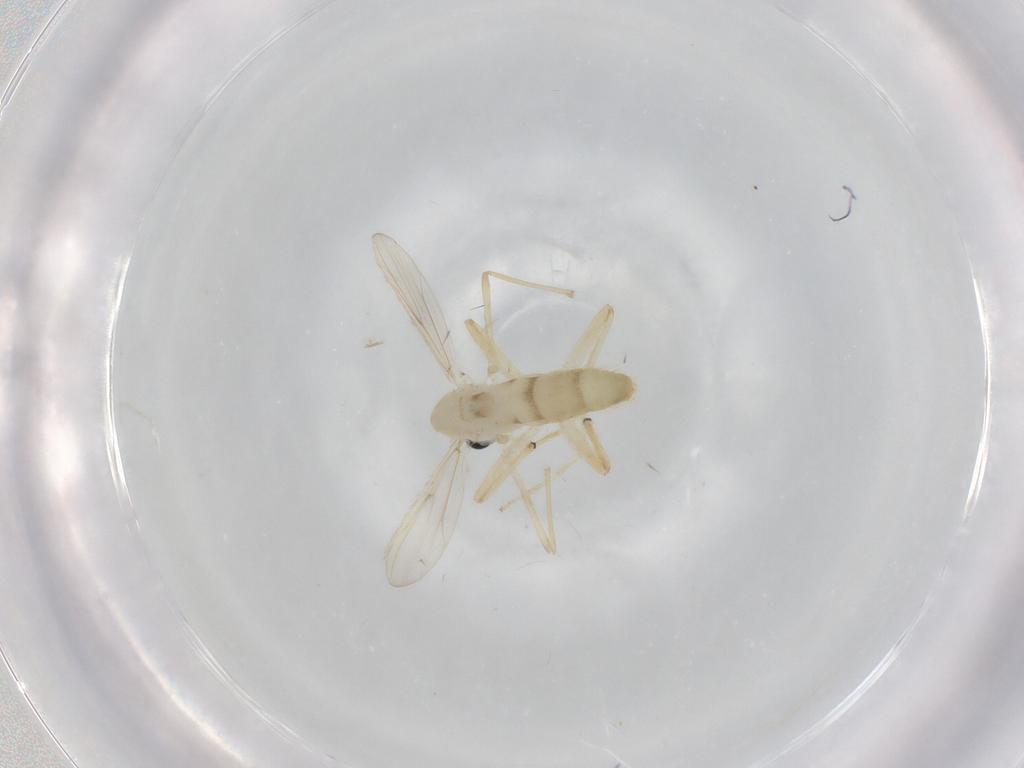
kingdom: Animalia
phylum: Arthropoda
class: Insecta
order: Diptera
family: Chironomidae
